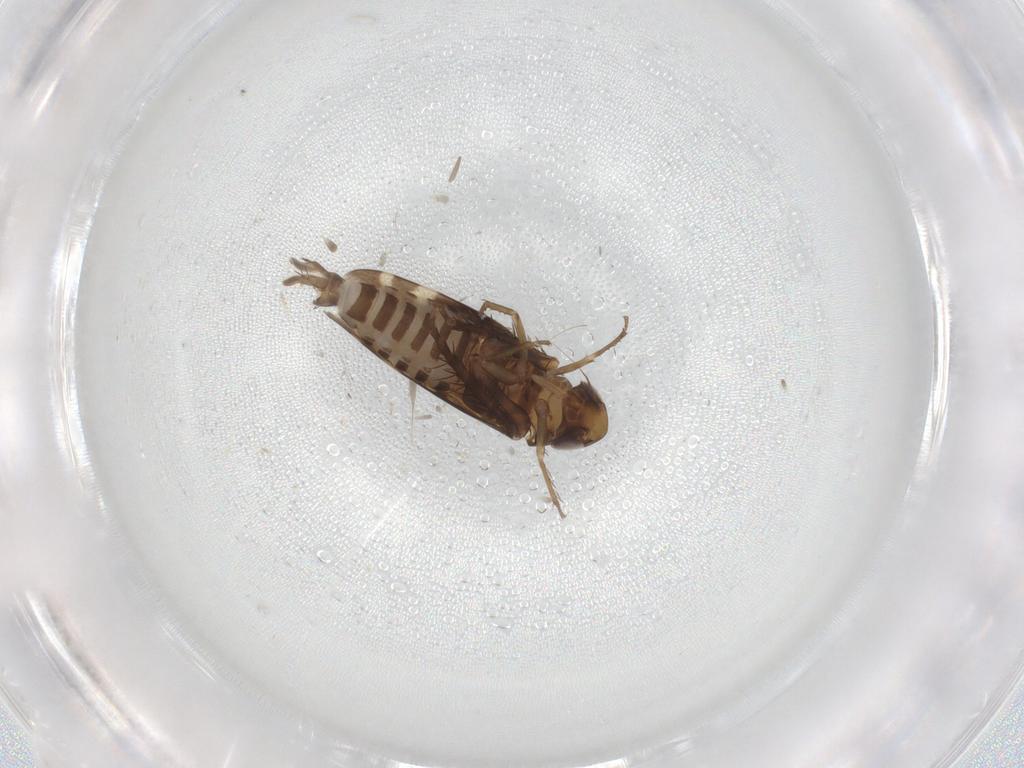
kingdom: Animalia
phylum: Arthropoda
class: Insecta
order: Hemiptera
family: Cicadellidae
